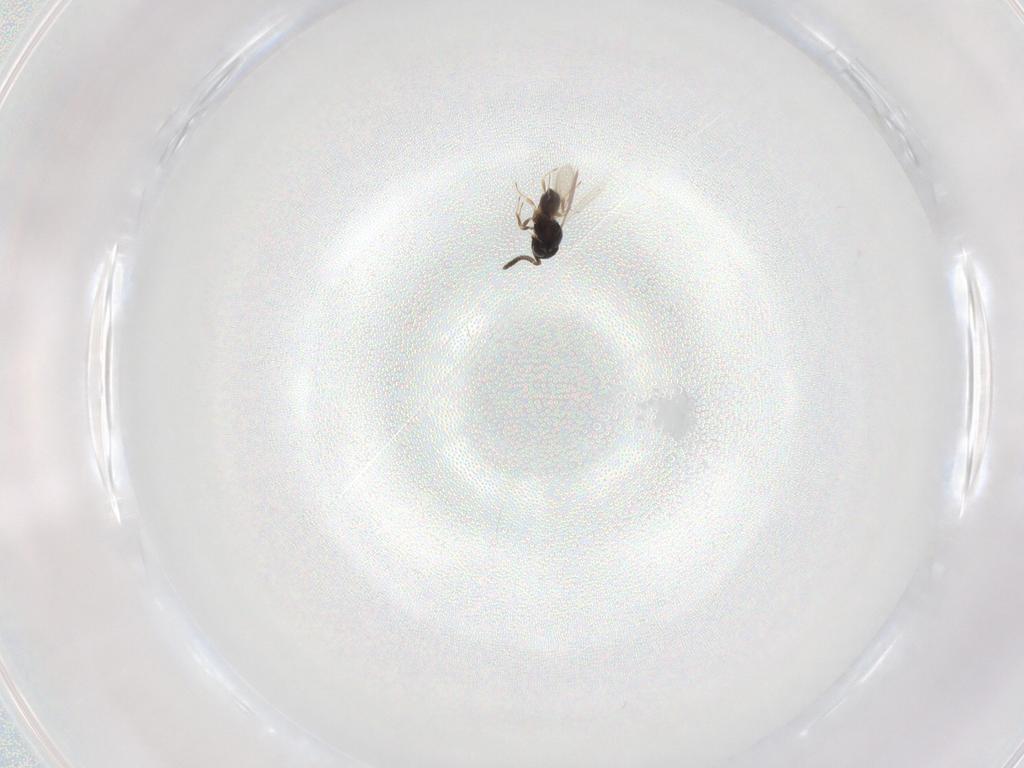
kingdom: Animalia
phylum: Arthropoda
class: Insecta
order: Hymenoptera
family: Scelionidae
